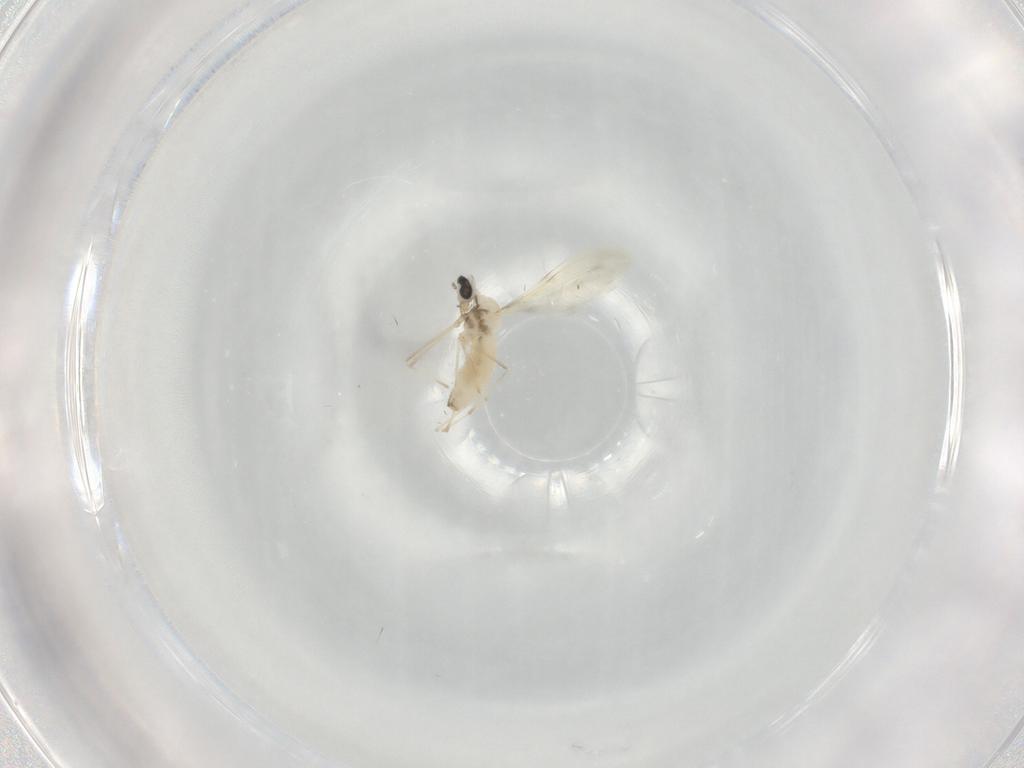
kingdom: Animalia
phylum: Arthropoda
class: Insecta
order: Diptera
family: Cecidomyiidae
